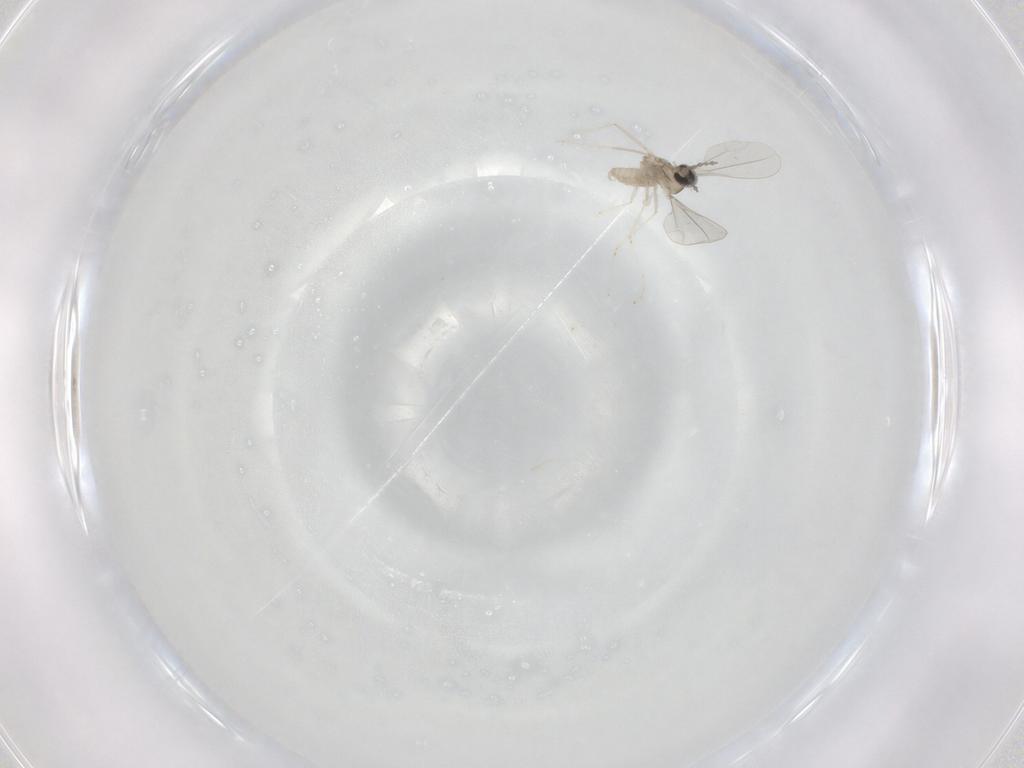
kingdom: Animalia
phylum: Arthropoda
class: Insecta
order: Diptera
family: Cecidomyiidae
